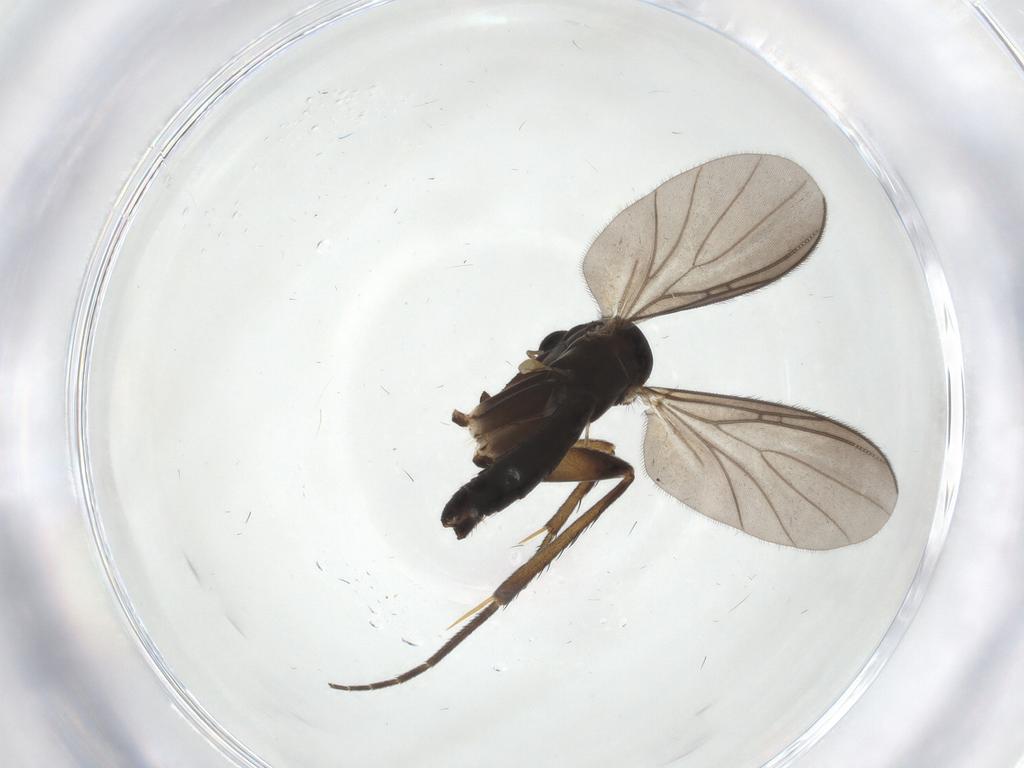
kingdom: Animalia
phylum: Arthropoda
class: Insecta
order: Diptera
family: Mycetophilidae
